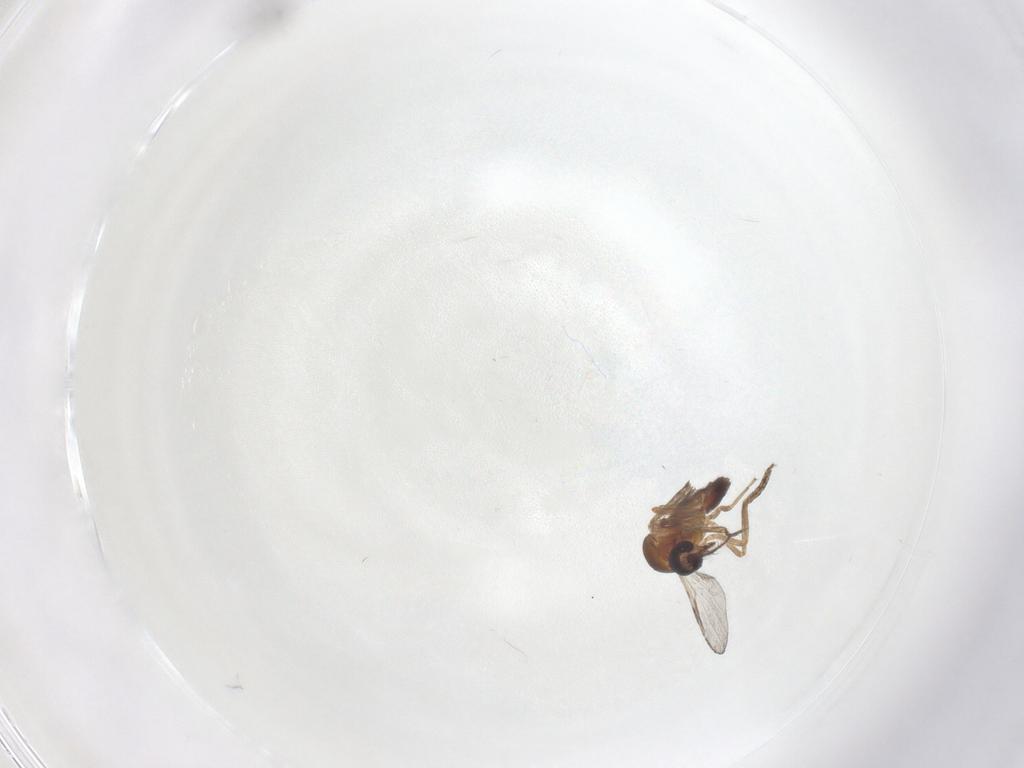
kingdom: Animalia
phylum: Arthropoda
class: Insecta
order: Diptera
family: Ceratopogonidae
